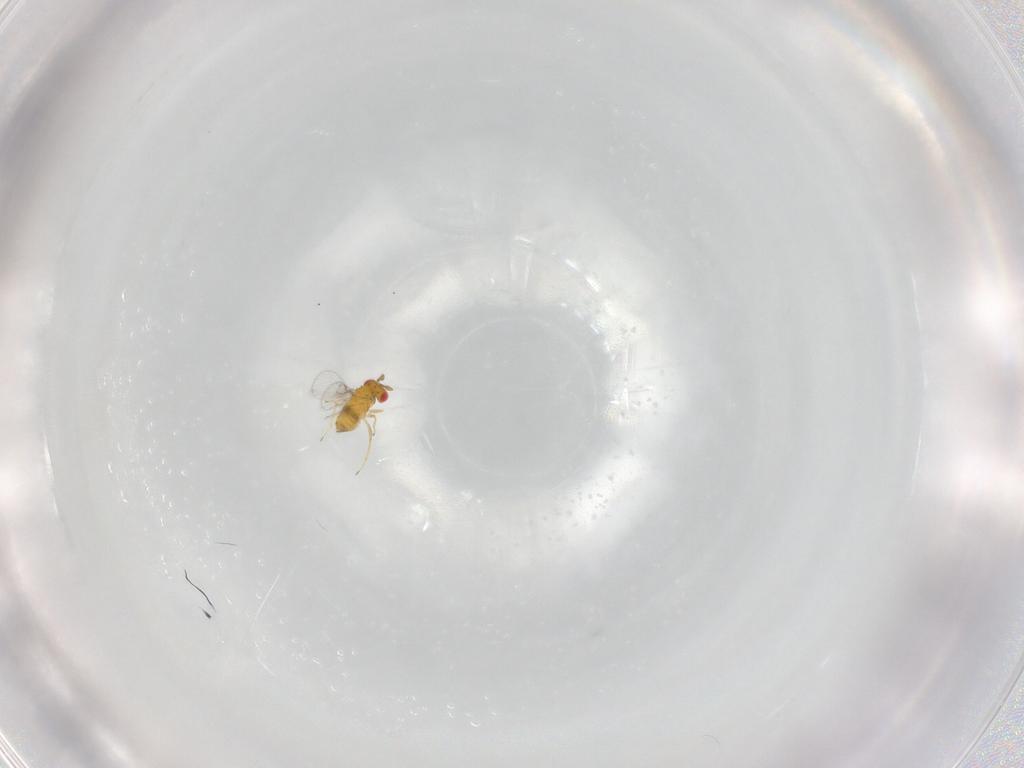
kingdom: Animalia
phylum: Arthropoda
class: Insecta
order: Hymenoptera
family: Trichogrammatidae
